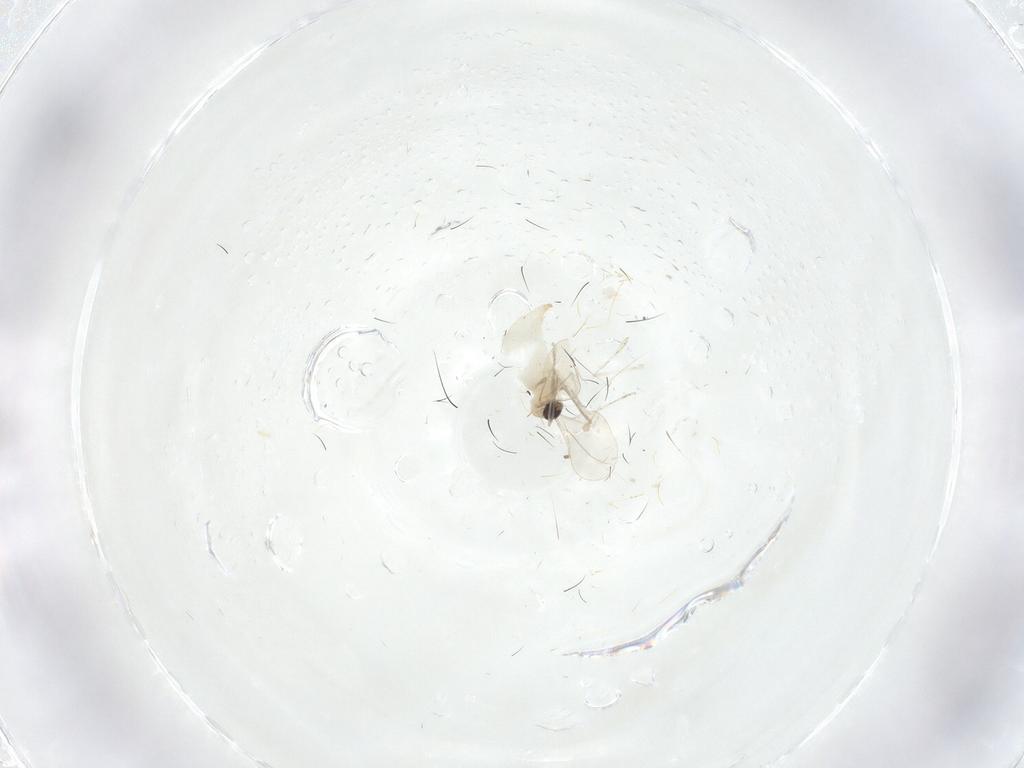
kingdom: Animalia
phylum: Arthropoda
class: Insecta
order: Diptera
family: Cecidomyiidae
